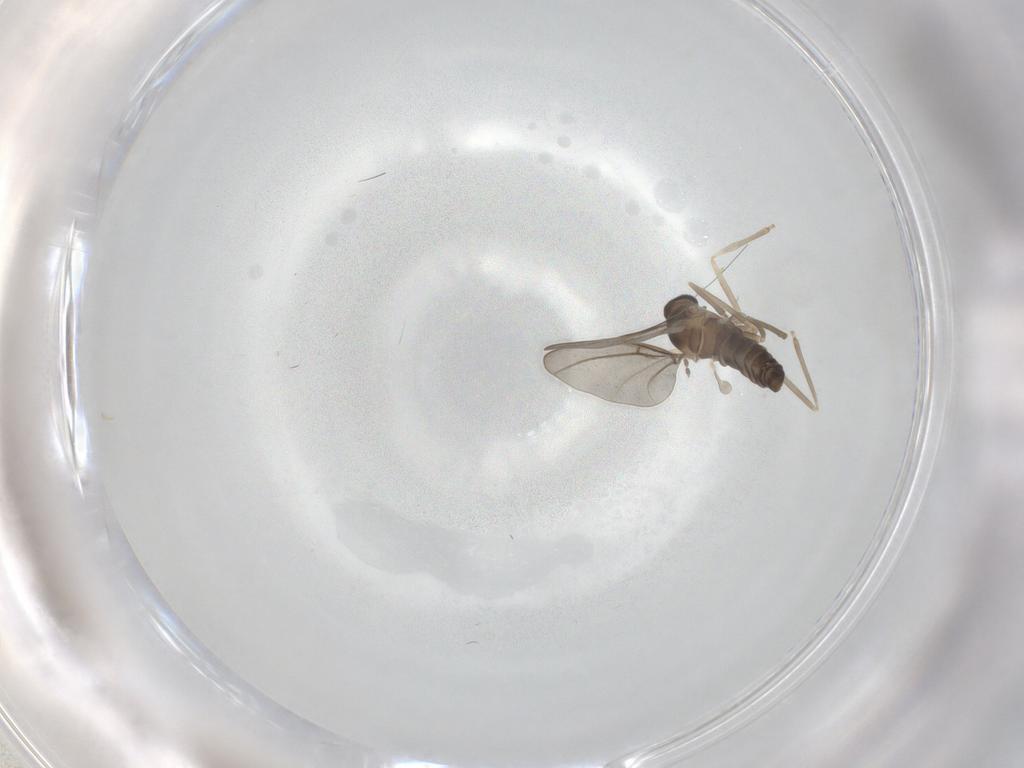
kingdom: Animalia
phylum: Arthropoda
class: Insecta
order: Diptera
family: Cecidomyiidae
